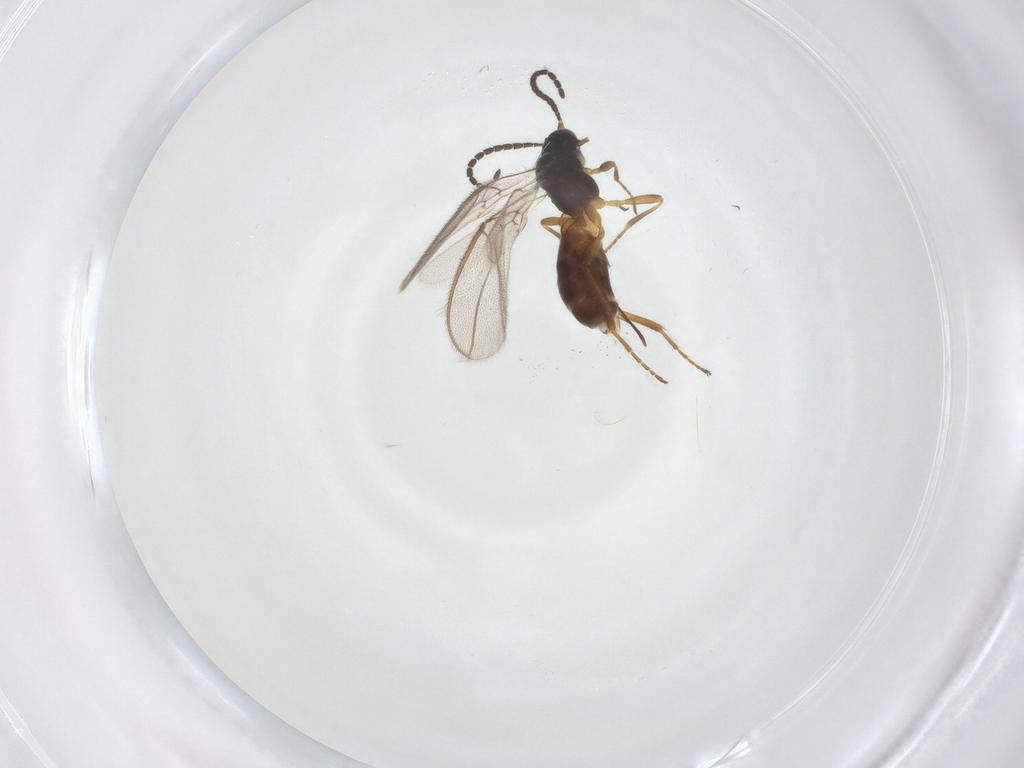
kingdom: Animalia
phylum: Arthropoda
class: Insecta
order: Hymenoptera
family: Braconidae
